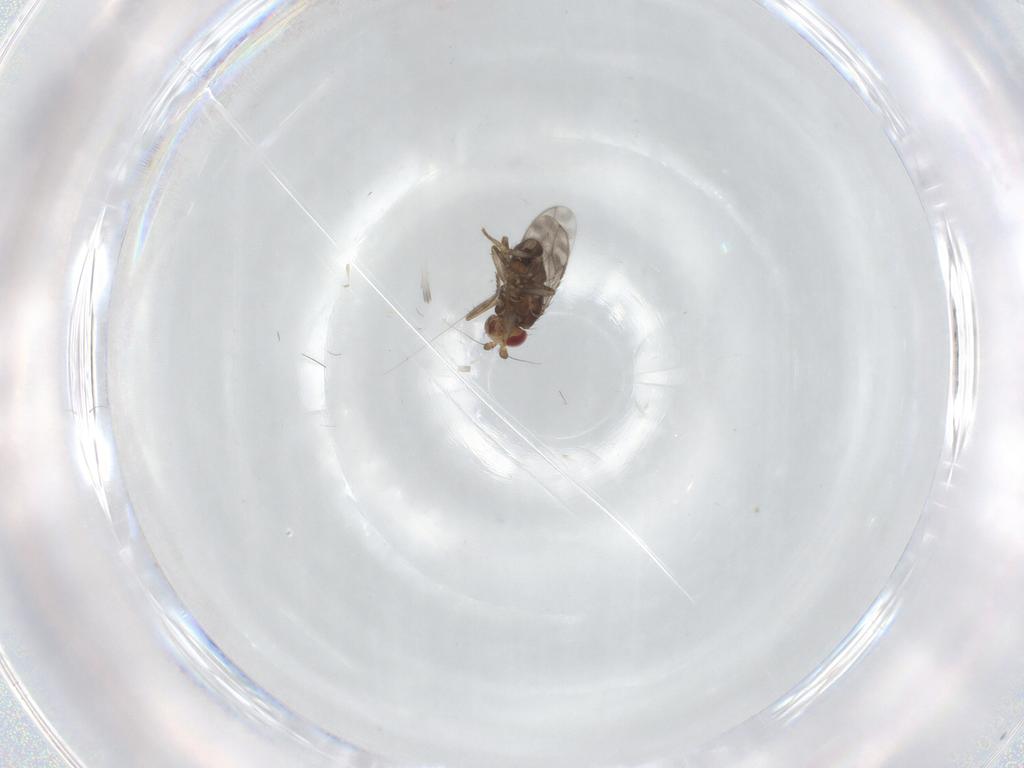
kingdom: Animalia
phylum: Arthropoda
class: Insecta
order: Diptera
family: Sphaeroceridae
